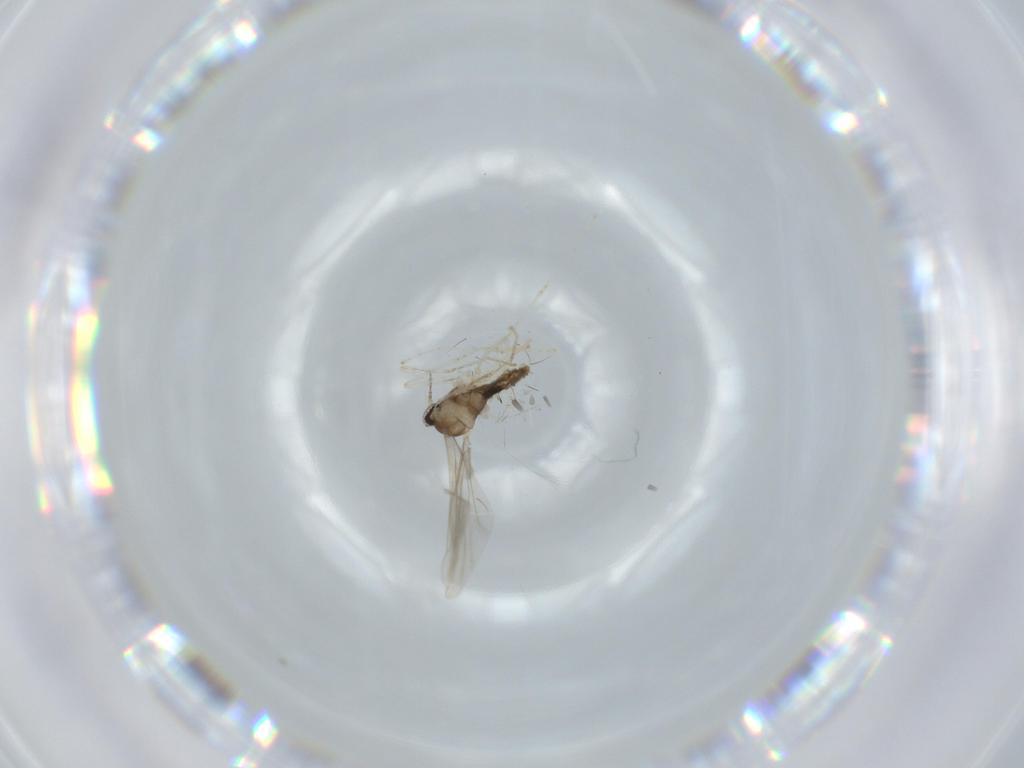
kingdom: Animalia
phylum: Arthropoda
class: Insecta
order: Diptera
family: Cecidomyiidae
